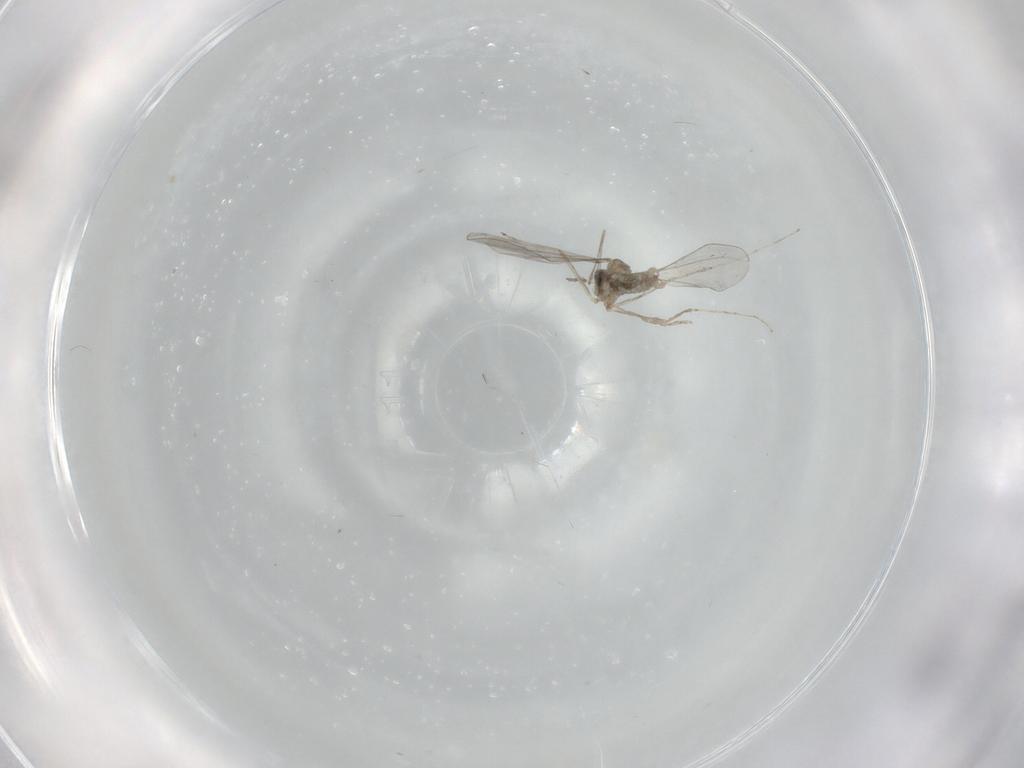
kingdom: Animalia
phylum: Arthropoda
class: Insecta
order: Diptera
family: Cecidomyiidae
